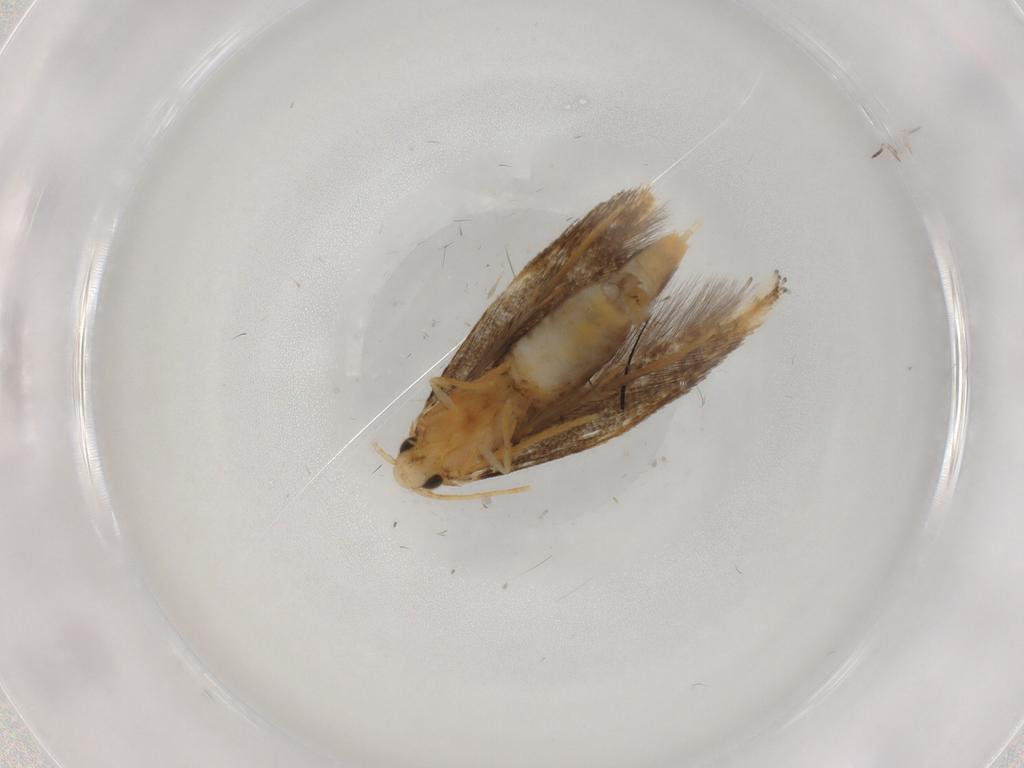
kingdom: Animalia
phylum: Arthropoda
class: Insecta
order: Lepidoptera
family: Tineidae
